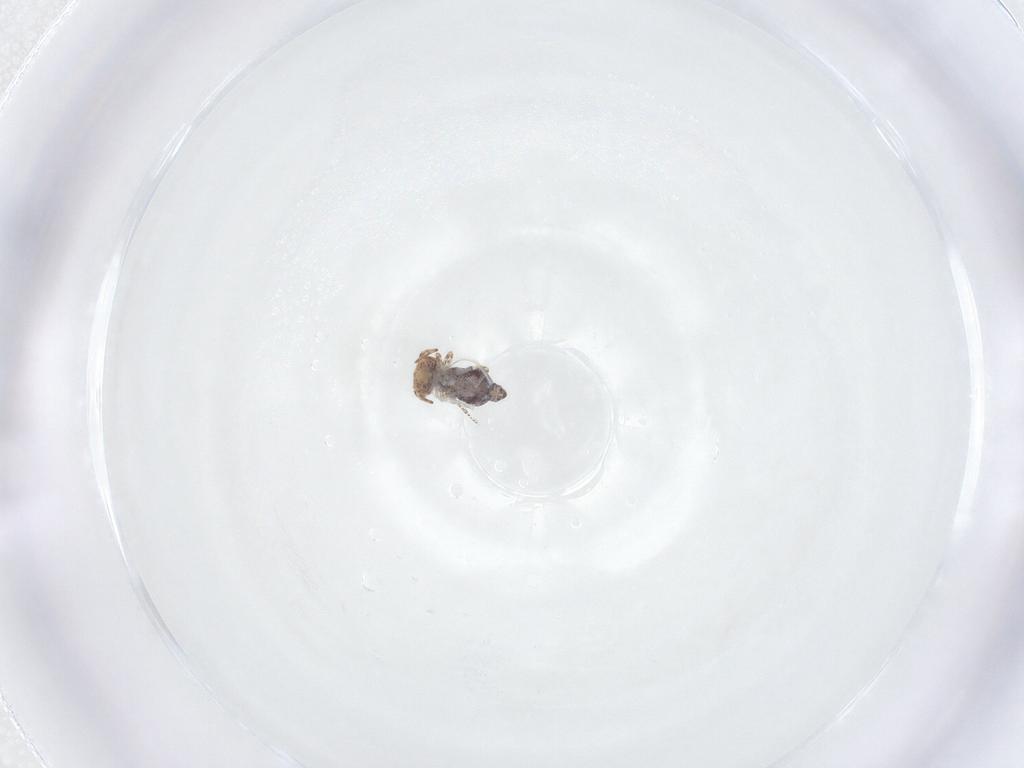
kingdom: Animalia
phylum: Arthropoda
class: Collembola
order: Symphypleona
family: Bourletiellidae
